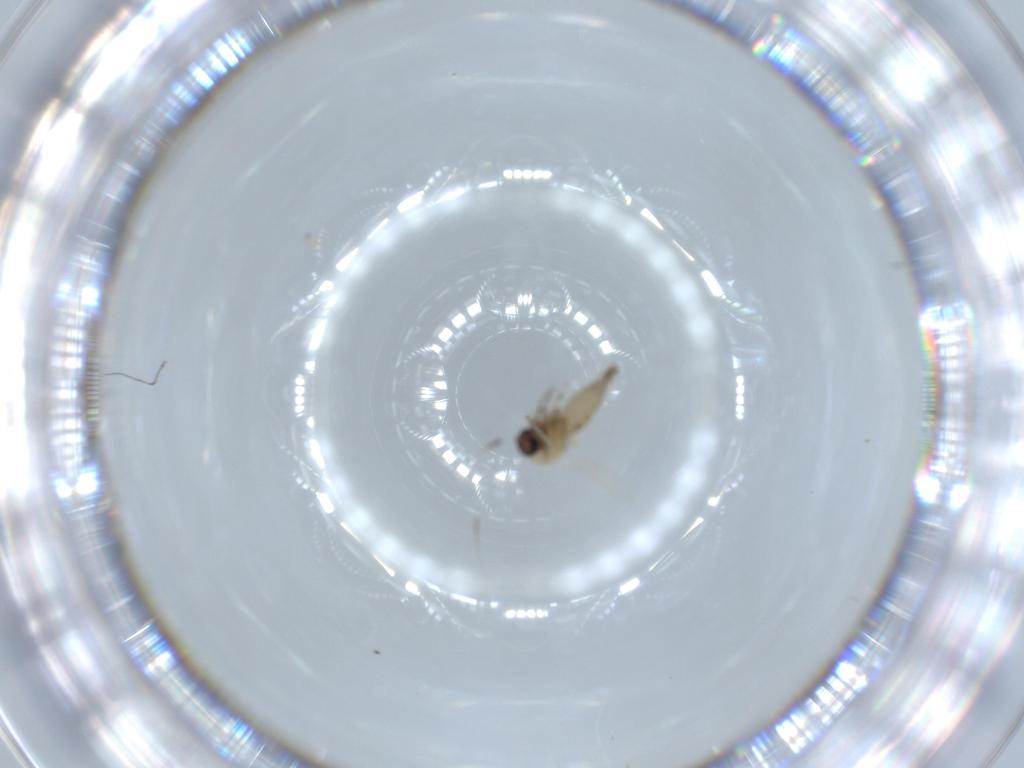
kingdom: Animalia
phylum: Arthropoda
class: Insecta
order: Diptera
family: Ceratopogonidae
